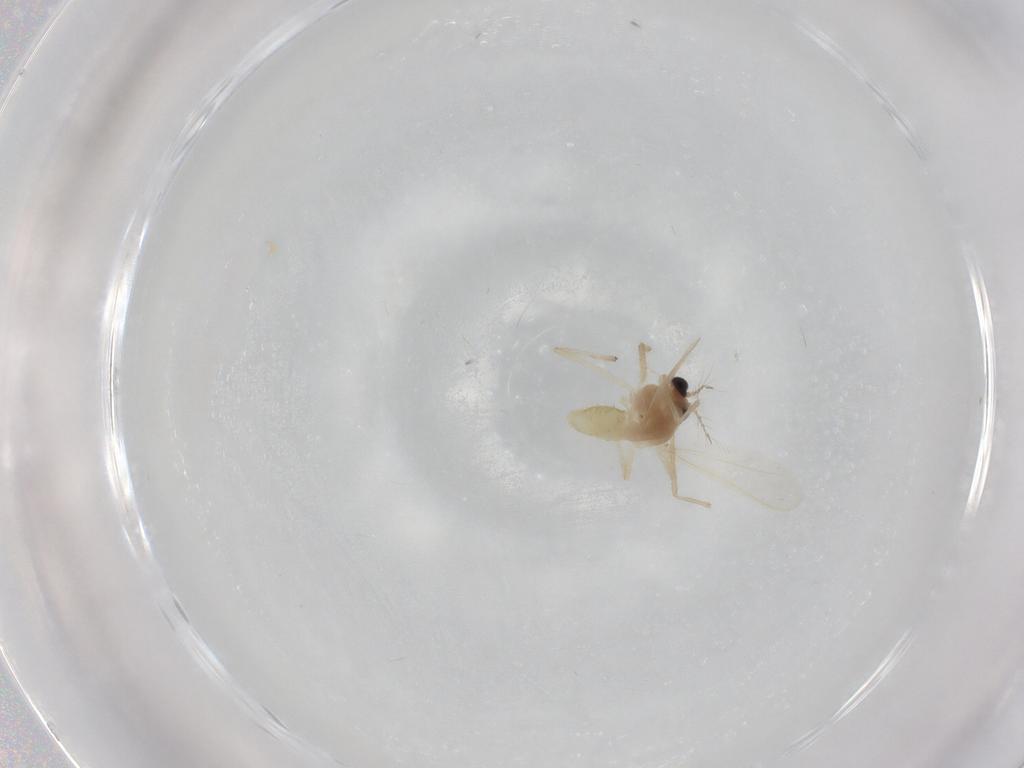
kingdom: Animalia
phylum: Arthropoda
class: Insecta
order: Diptera
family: Chironomidae
